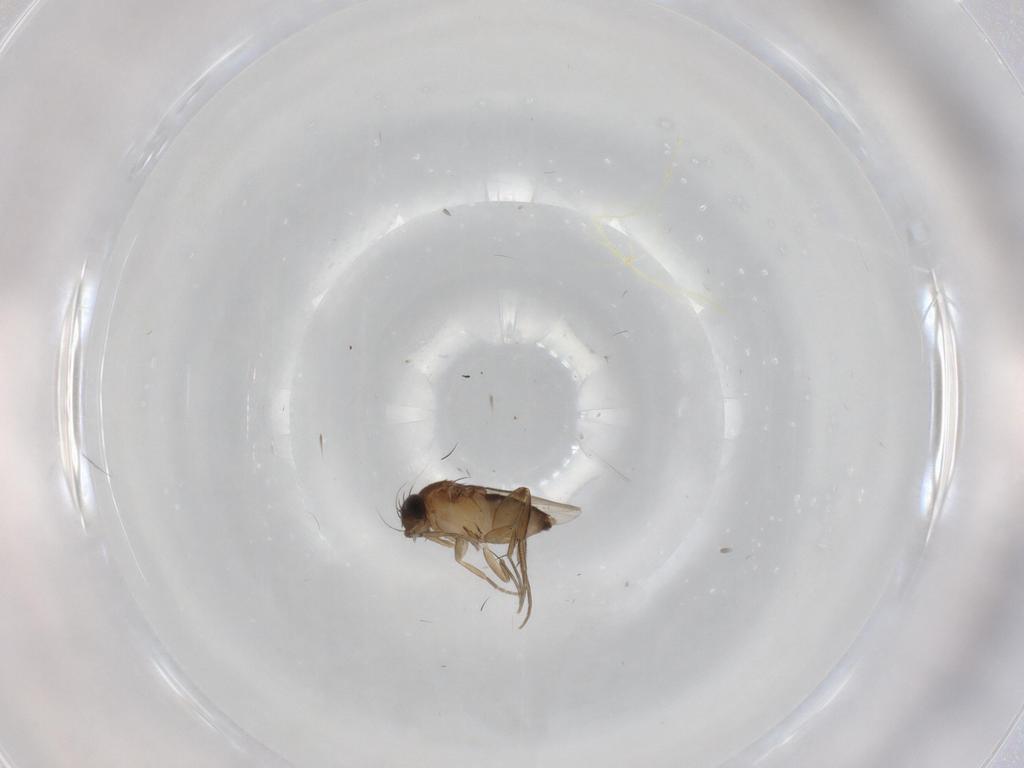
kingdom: Animalia
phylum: Arthropoda
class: Insecta
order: Diptera
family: Phoridae
